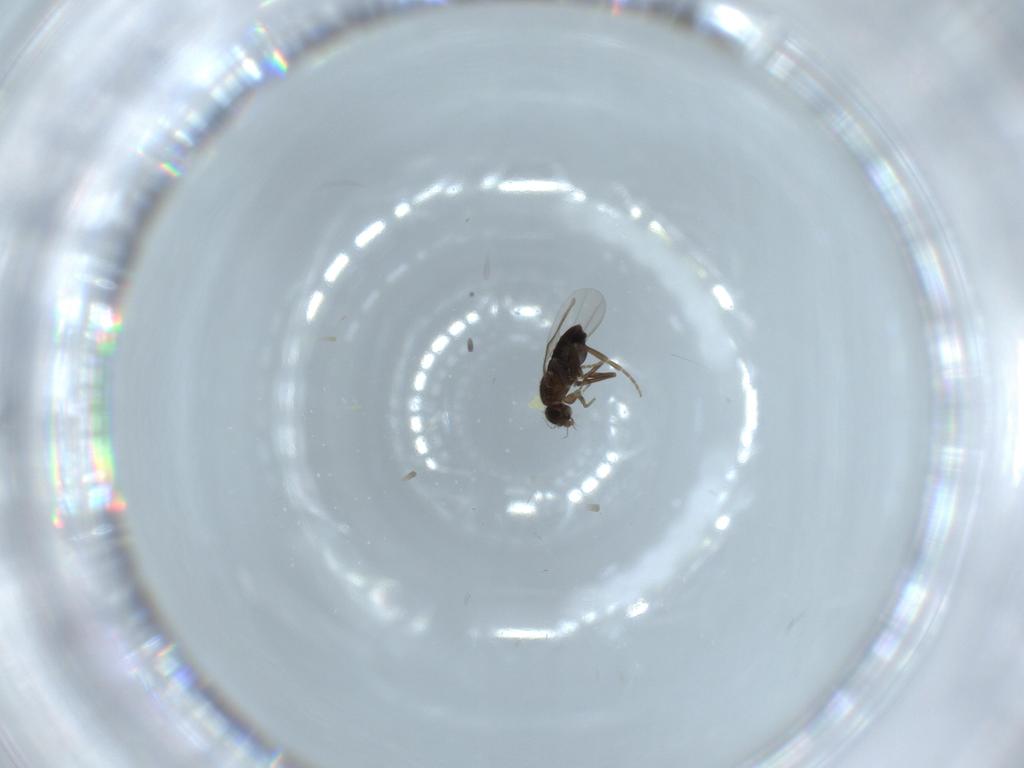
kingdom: Animalia
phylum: Arthropoda
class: Insecta
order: Diptera
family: Phoridae
